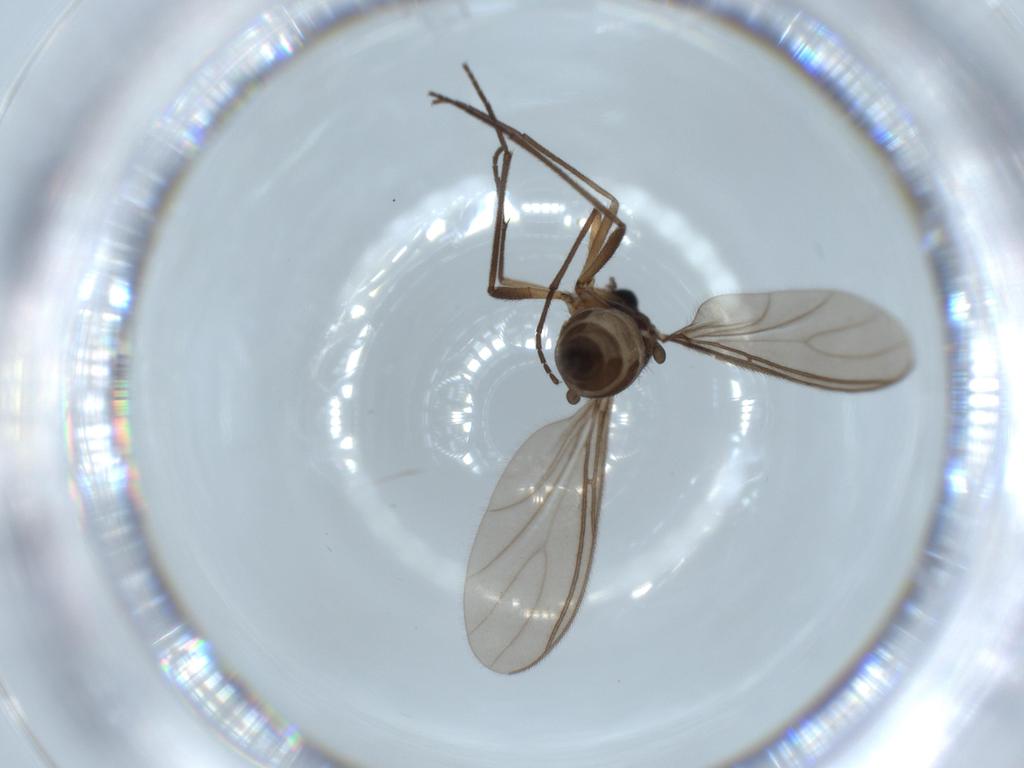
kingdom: Animalia
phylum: Arthropoda
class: Insecta
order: Diptera
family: Sciaridae
